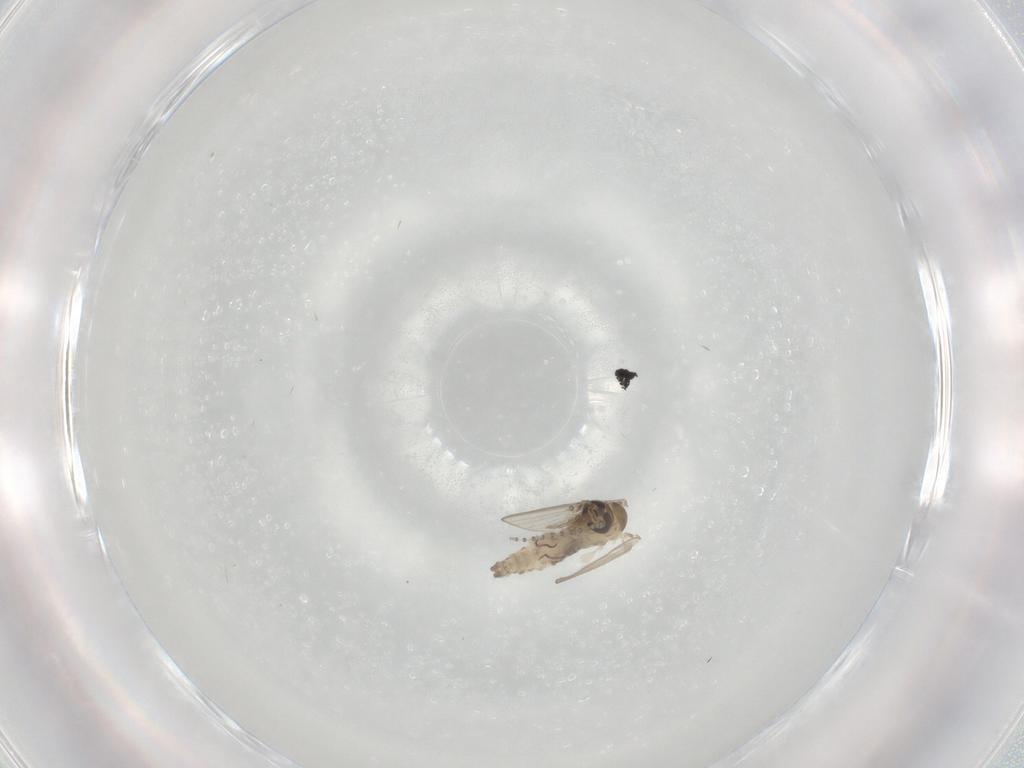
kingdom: Animalia
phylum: Arthropoda
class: Insecta
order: Diptera
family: Psychodidae
